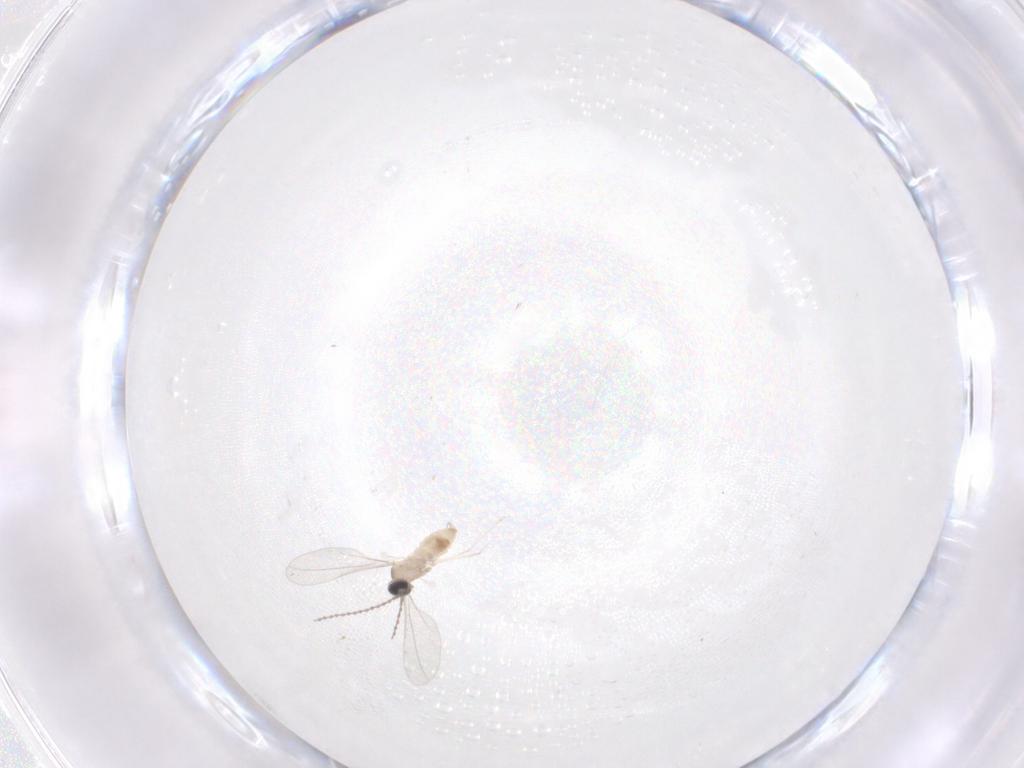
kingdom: Animalia
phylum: Arthropoda
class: Insecta
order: Diptera
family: Cecidomyiidae
